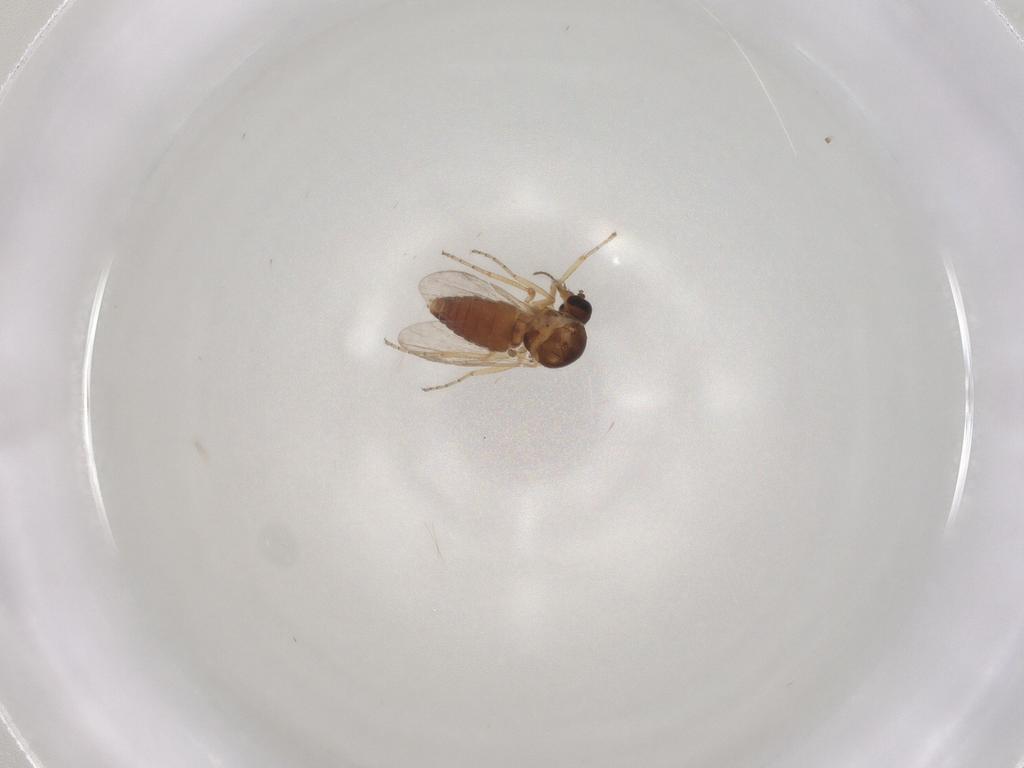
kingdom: Animalia
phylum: Arthropoda
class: Insecta
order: Diptera
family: Ceratopogonidae
